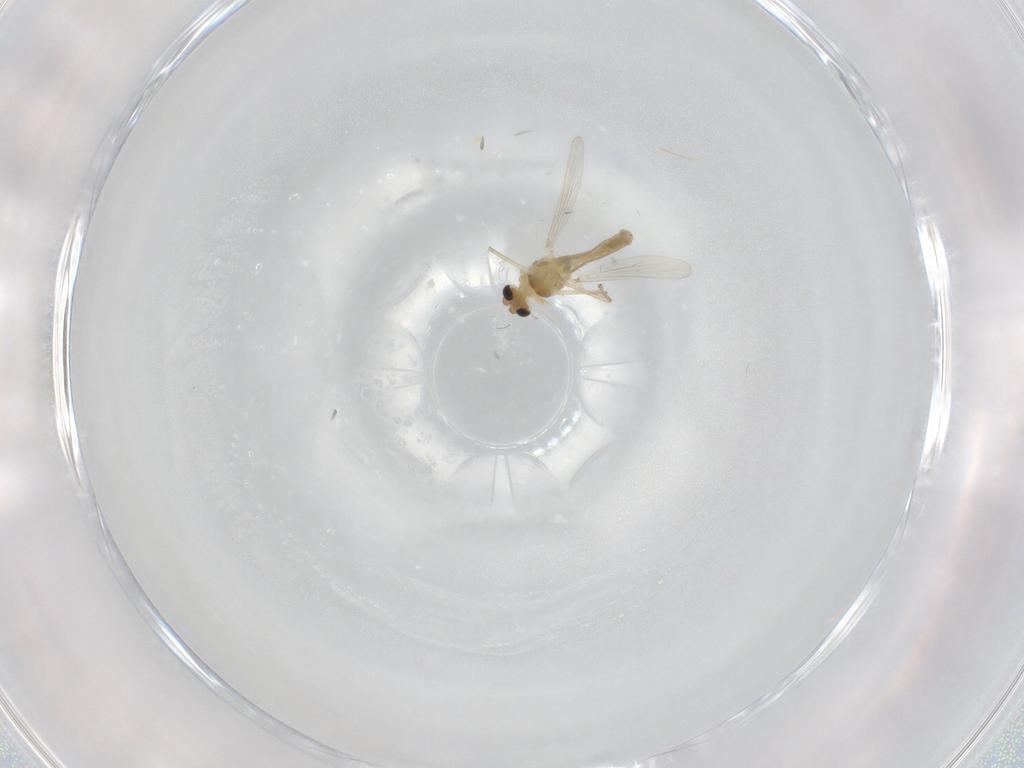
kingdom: Animalia
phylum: Arthropoda
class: Insecta
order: Diptera
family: Chironomidae
